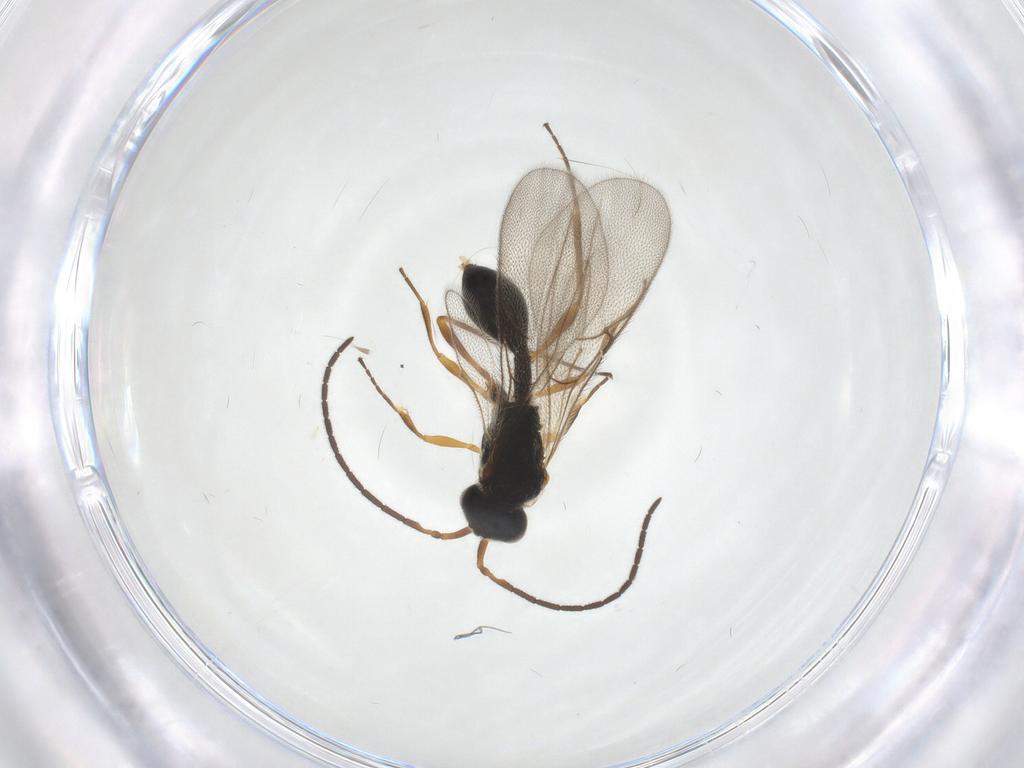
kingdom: Animalia
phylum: Arthropoda
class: Insecta
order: Hymenoptera
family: Diapriidae
